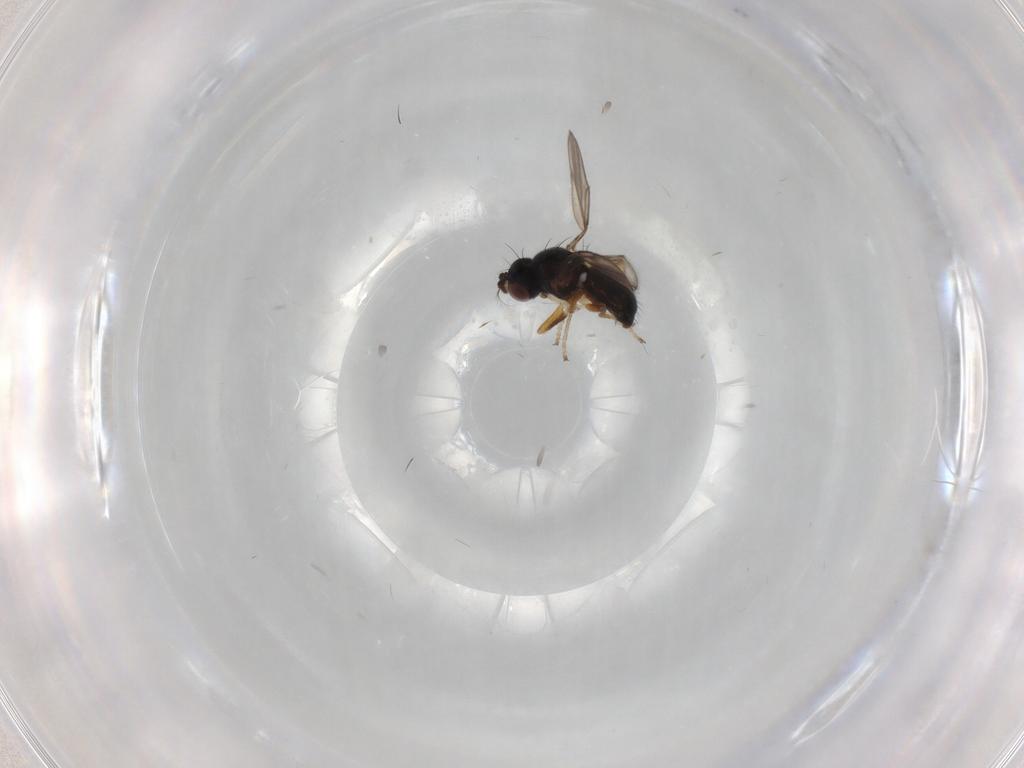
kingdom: Animalia
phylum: Arthropoda
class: Insecta
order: Diptera
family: Ephydridae
